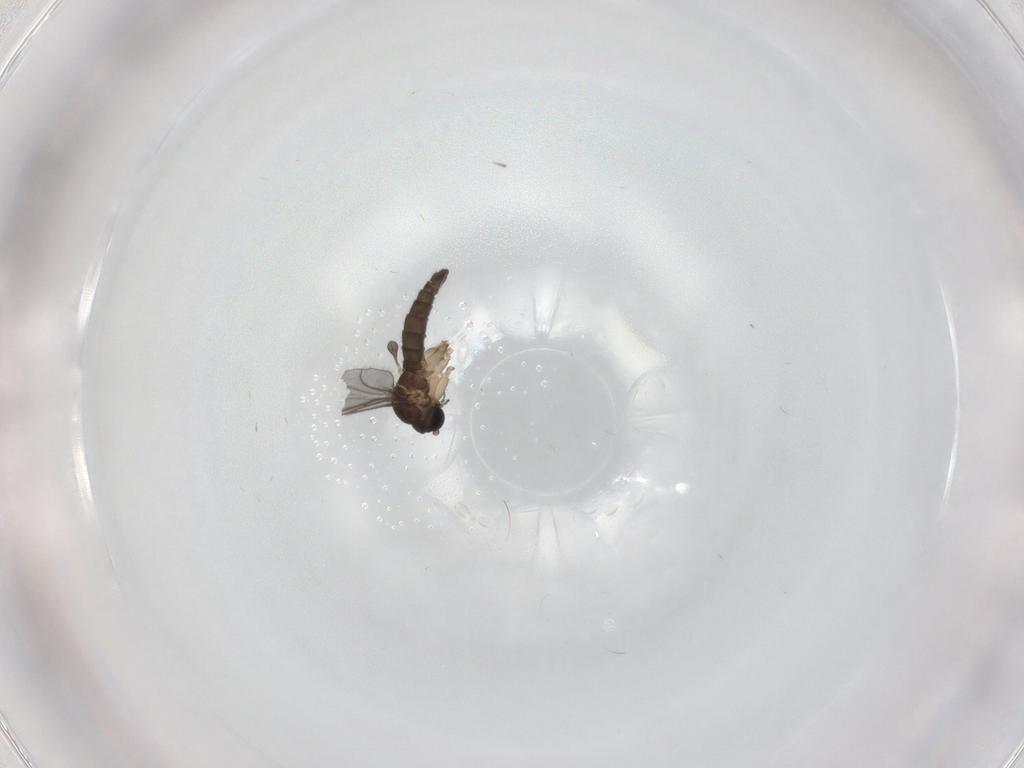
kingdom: Animalia
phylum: Arthropoda
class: Insecta
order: Diptera
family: Sciaridae
